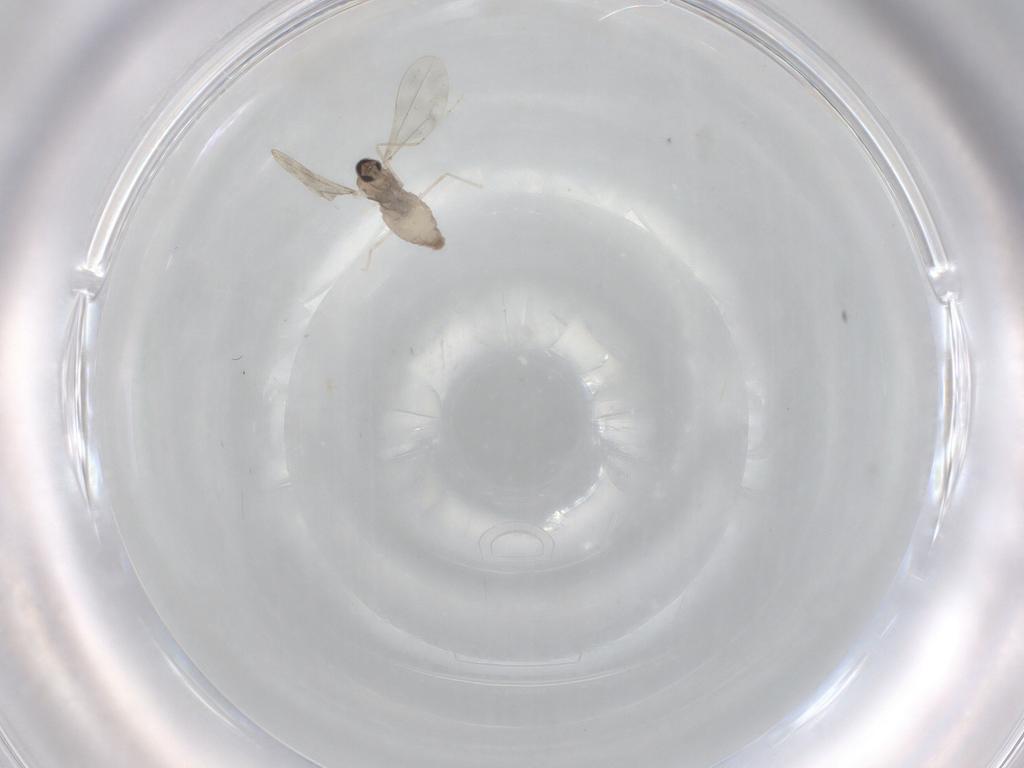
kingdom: Animalia
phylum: Arthropoda
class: Insecta
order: Diptera
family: Cecidomyiidae
